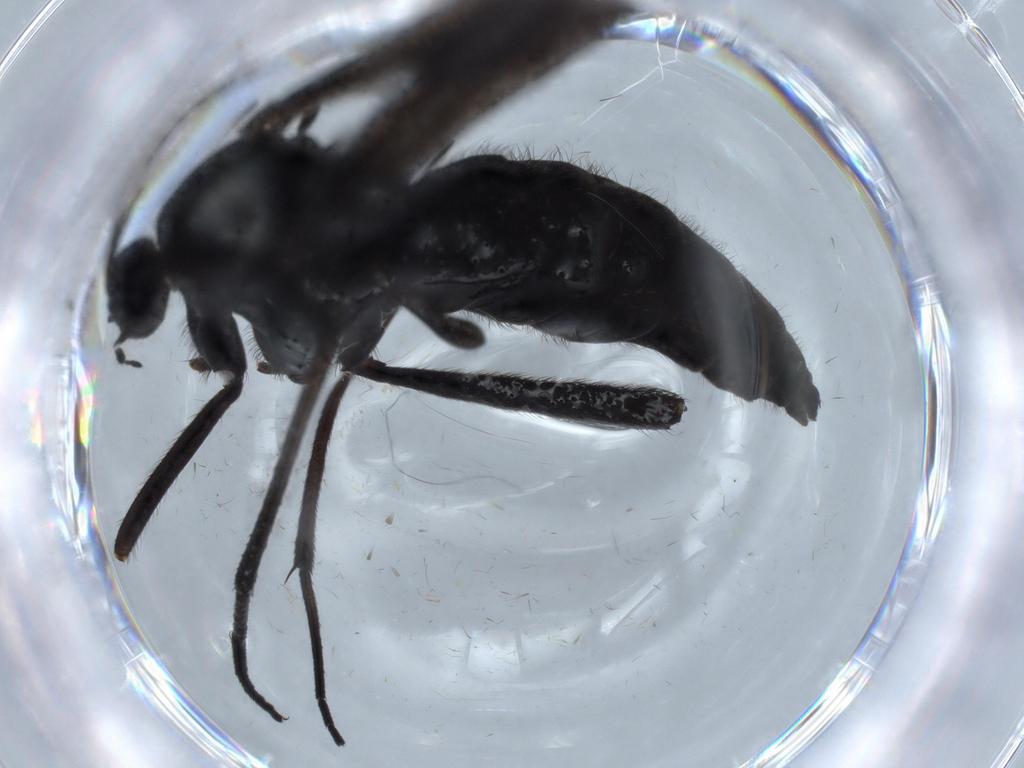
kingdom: Animalia
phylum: Arthropoda
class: Insecta
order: Diptera
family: Sciaridae
